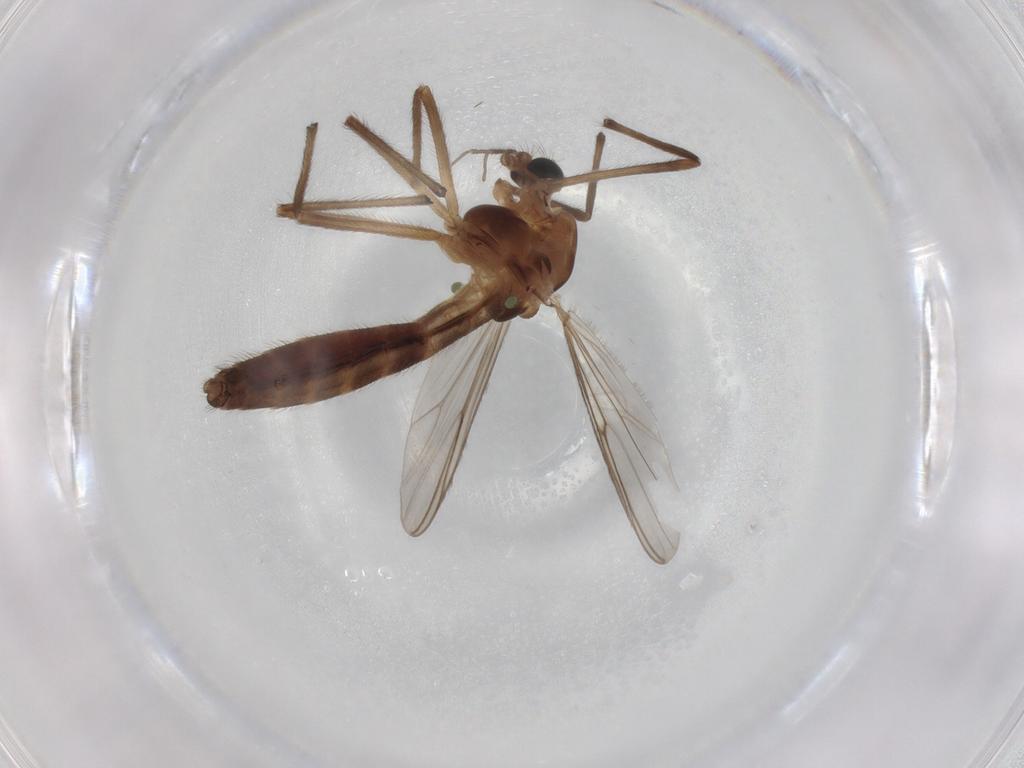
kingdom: Animalia
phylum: Arthropoda
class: Insecta
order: Diptera
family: Chironomidae
